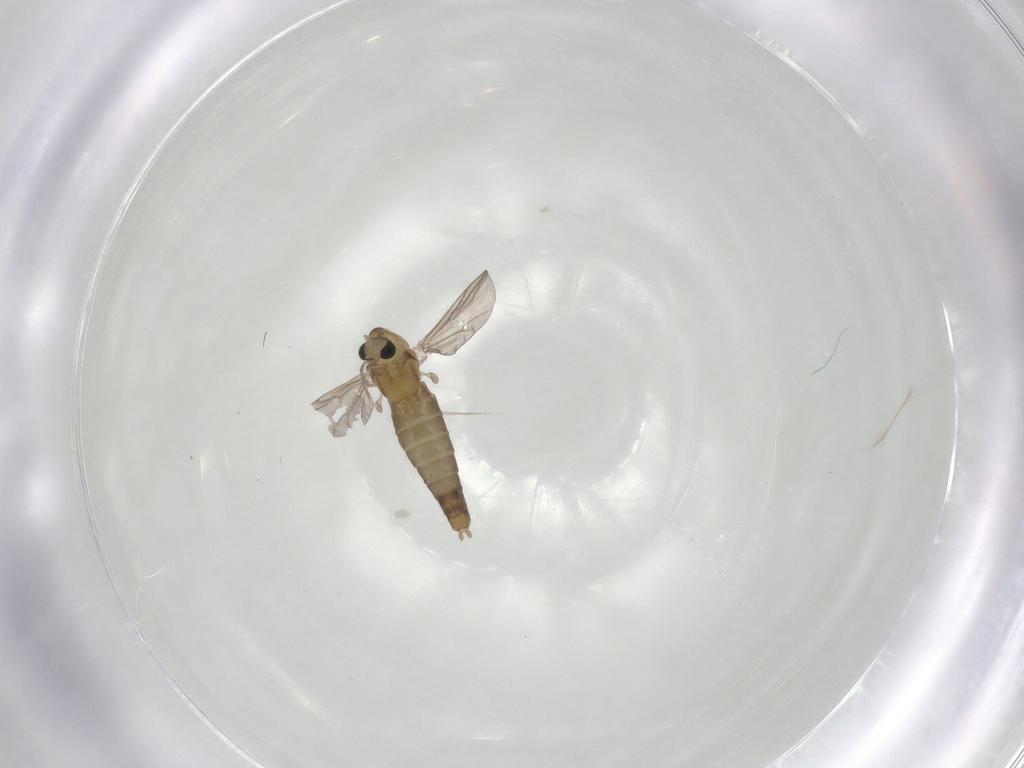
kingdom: Animalia
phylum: Arthropoda
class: Insecta
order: Diptera
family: Chironomidae
